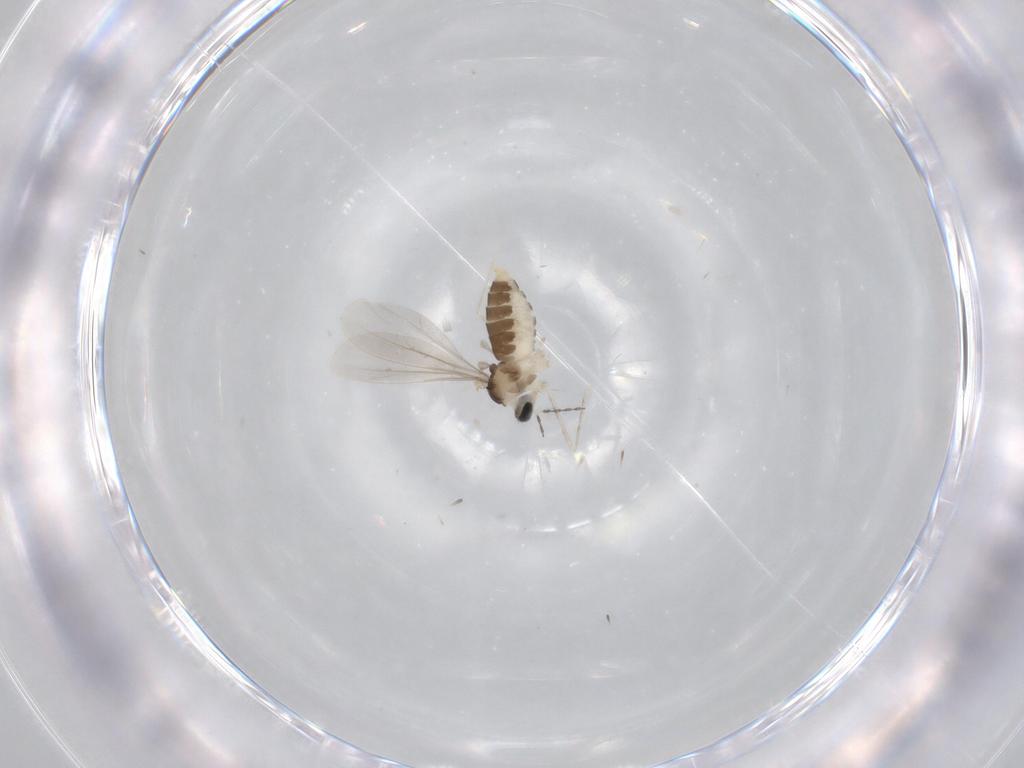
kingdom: Animalia
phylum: Arthropoda
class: Insecta
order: Diptera
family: Cecidomyiidae
